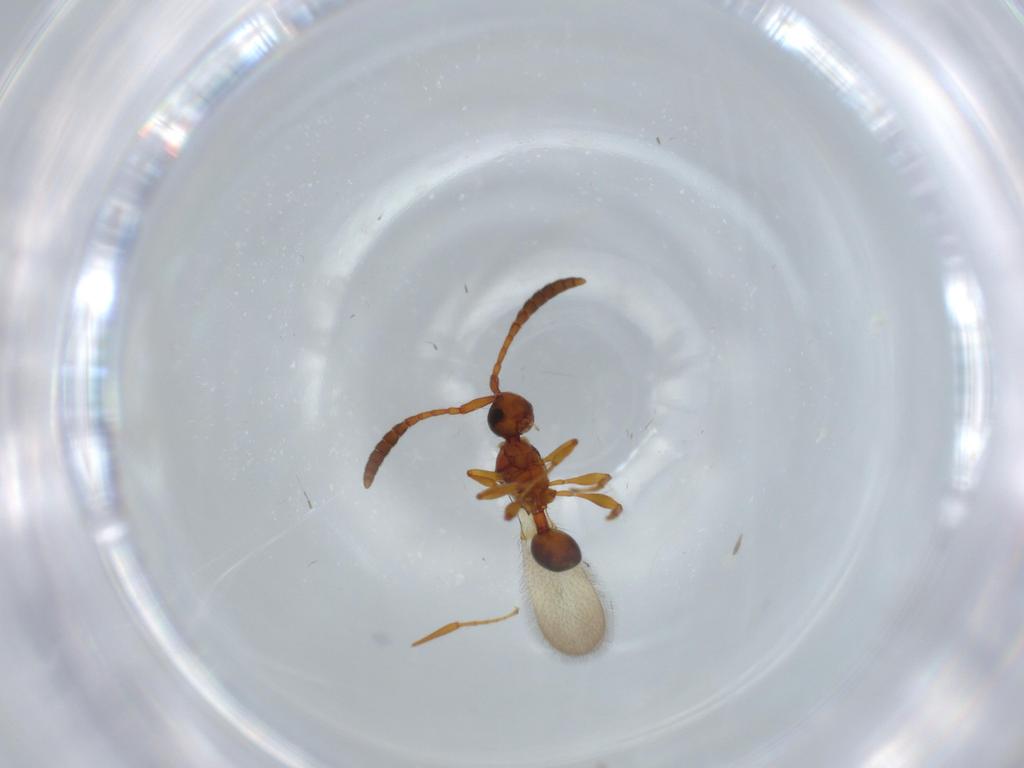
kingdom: Animalia
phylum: Arthropoda
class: Insecta
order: Hymenoptera
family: Diapriidae
